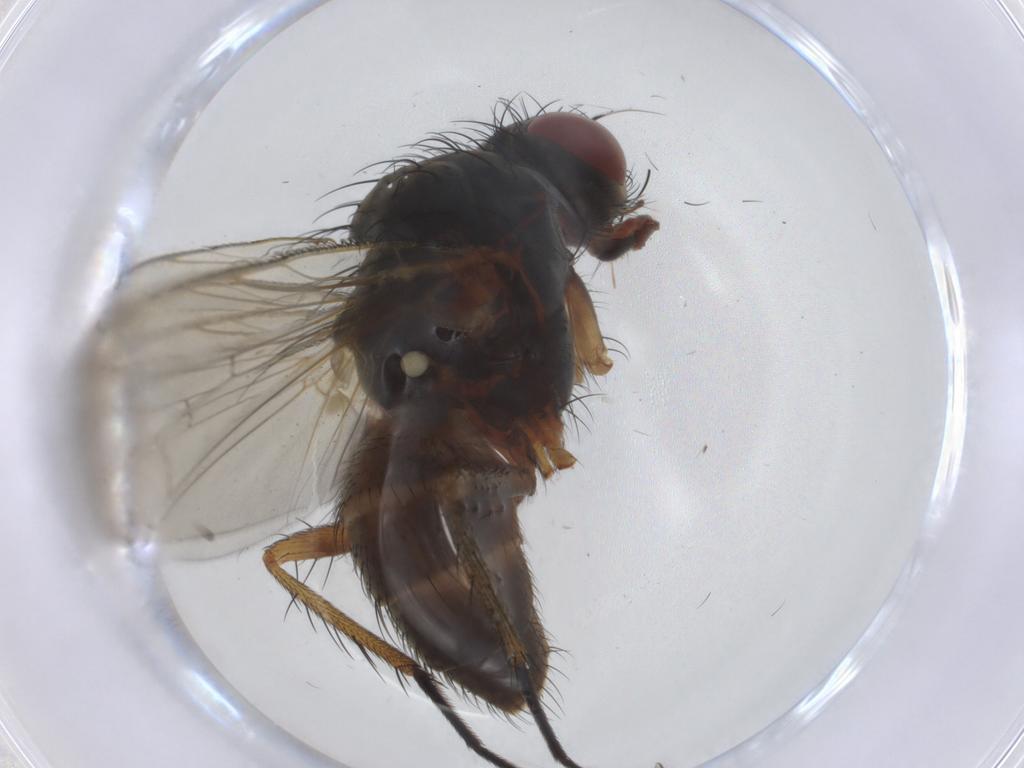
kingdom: Animalia
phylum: Arthropoda
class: Insecta
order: Diptera
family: Anthomyiidae
